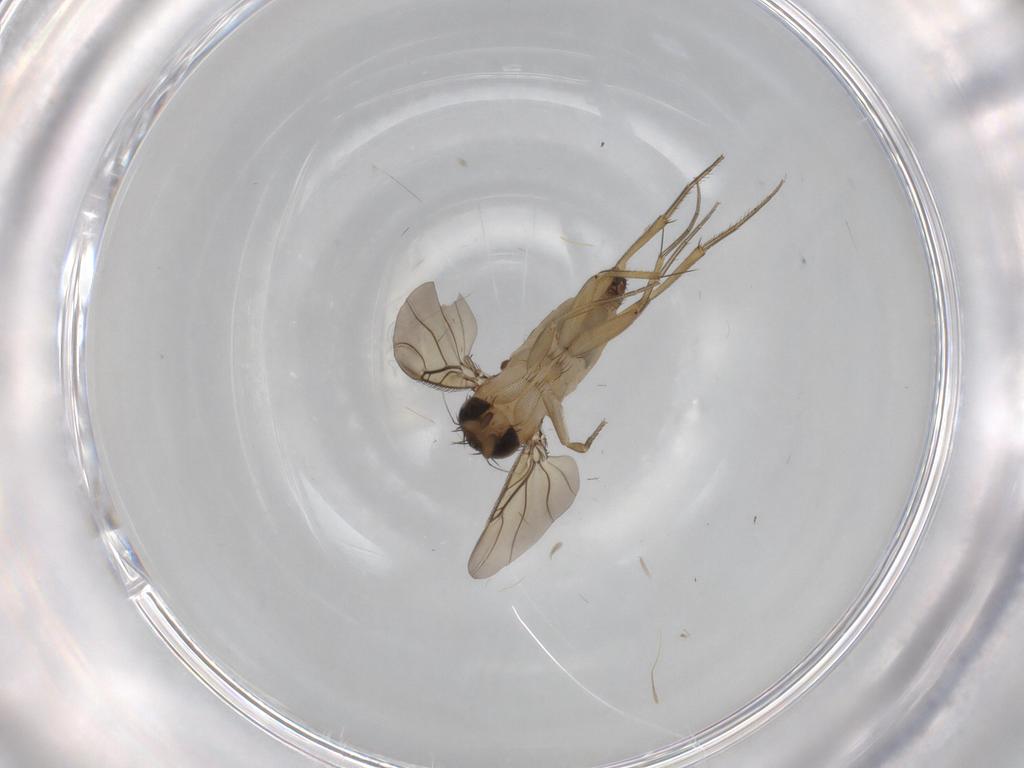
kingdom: Animalia
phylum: Arthropoda
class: Insecta
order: Diptera
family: Phoridae
